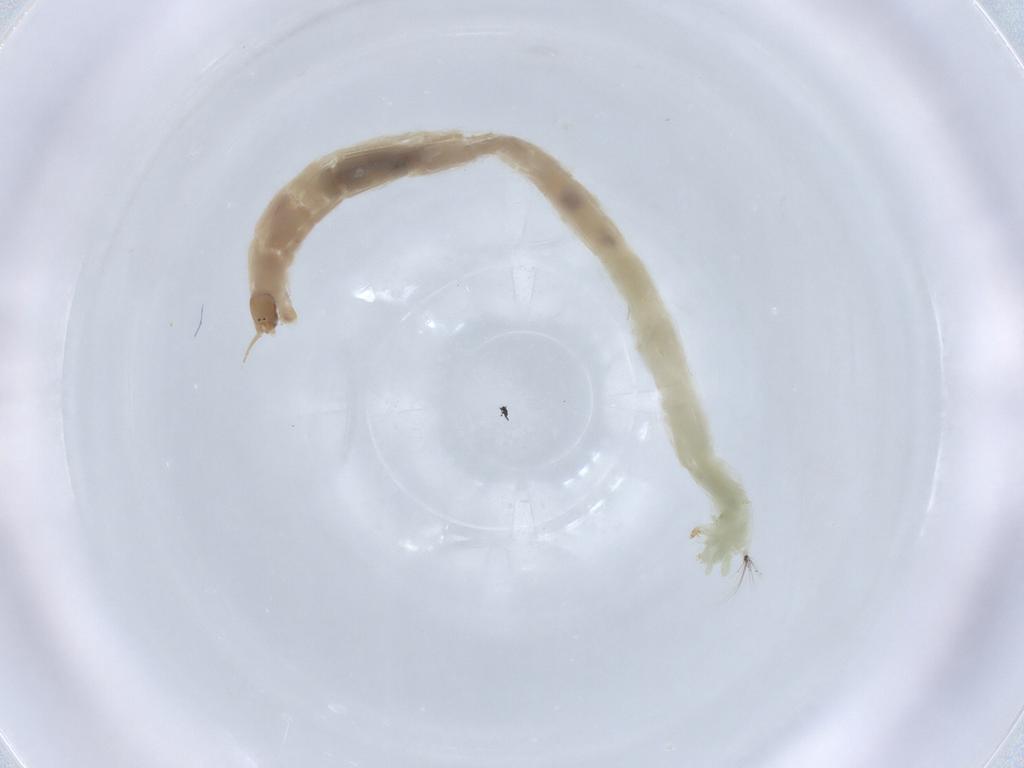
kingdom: Animalia
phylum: Arthropoda
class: Insecta
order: Diptera
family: Chironomidae
